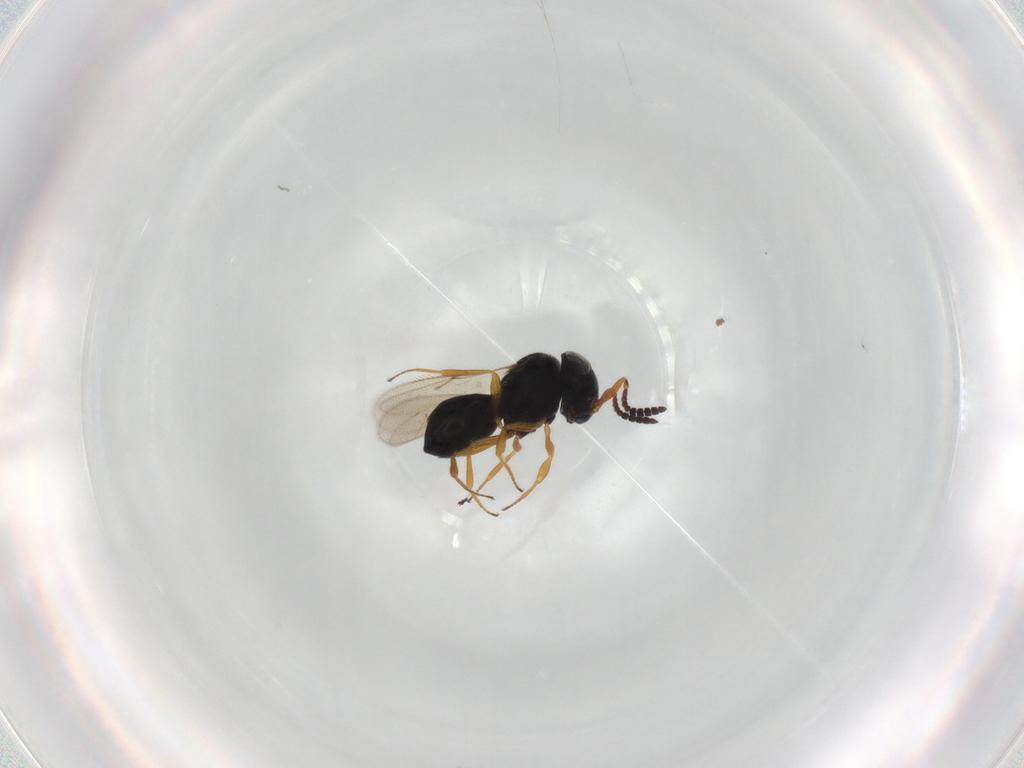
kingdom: Animalia
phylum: Arthropoda
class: Insecta
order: Hymenoptera
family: Scelionidae
